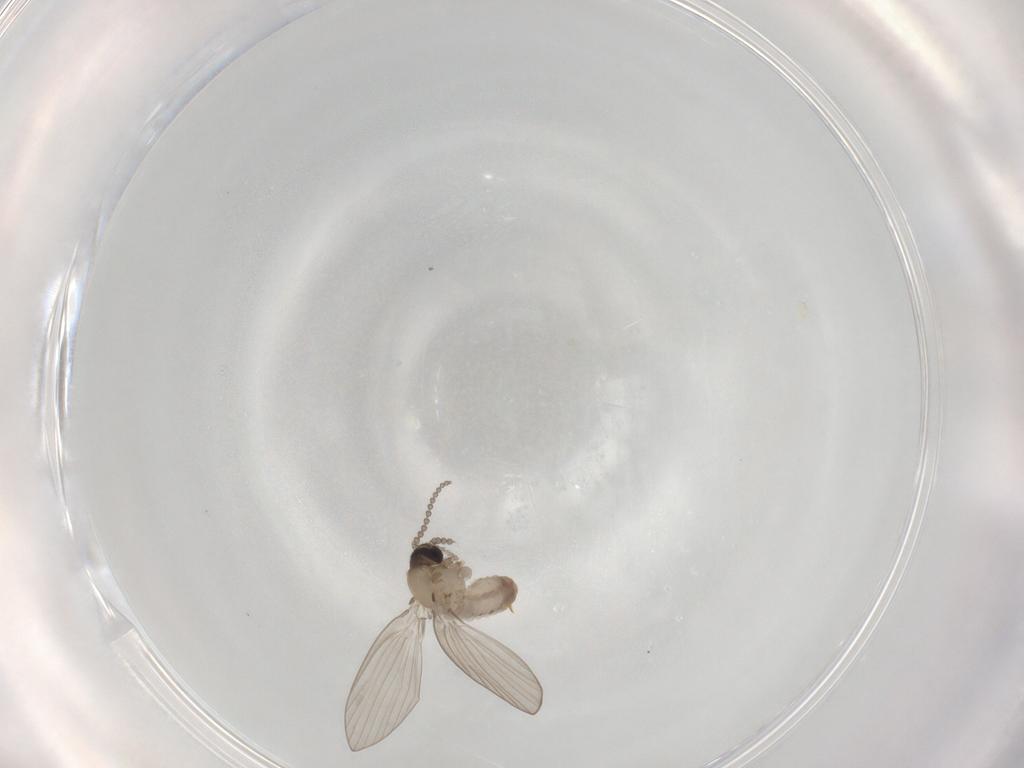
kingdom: Animalia
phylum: Arthropoda
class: Insecta
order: Diptera
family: Psychodidae
